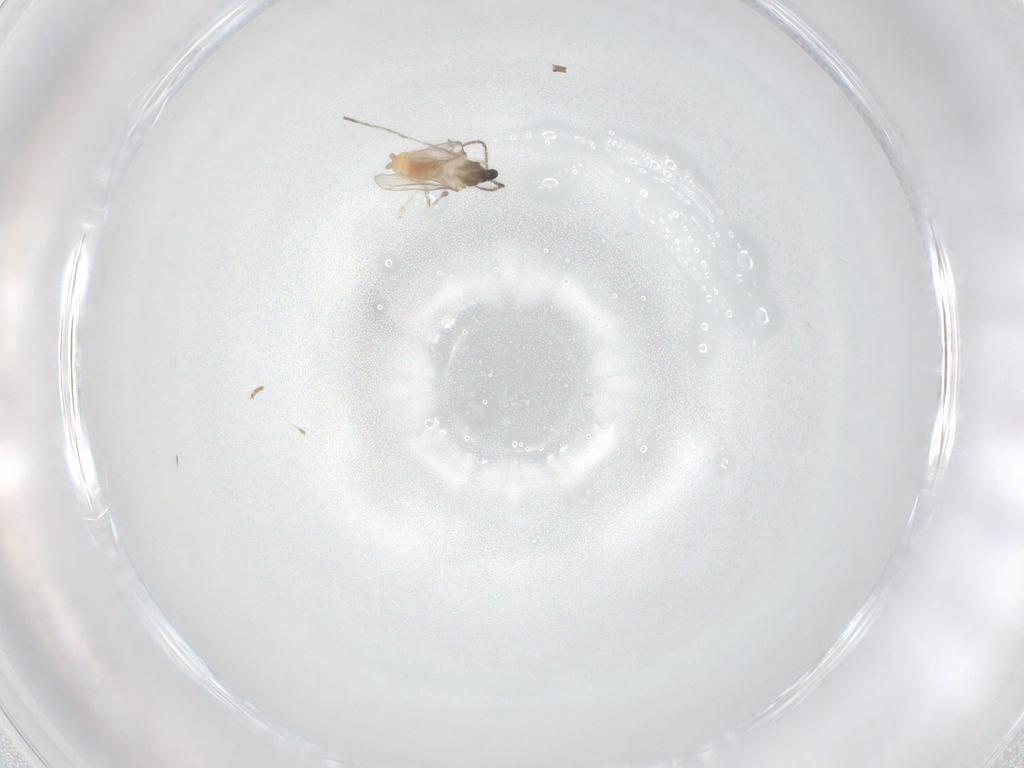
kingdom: Animalia
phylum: Arthropoda
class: Insecta
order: Diptera
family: Cecidomyiidae
